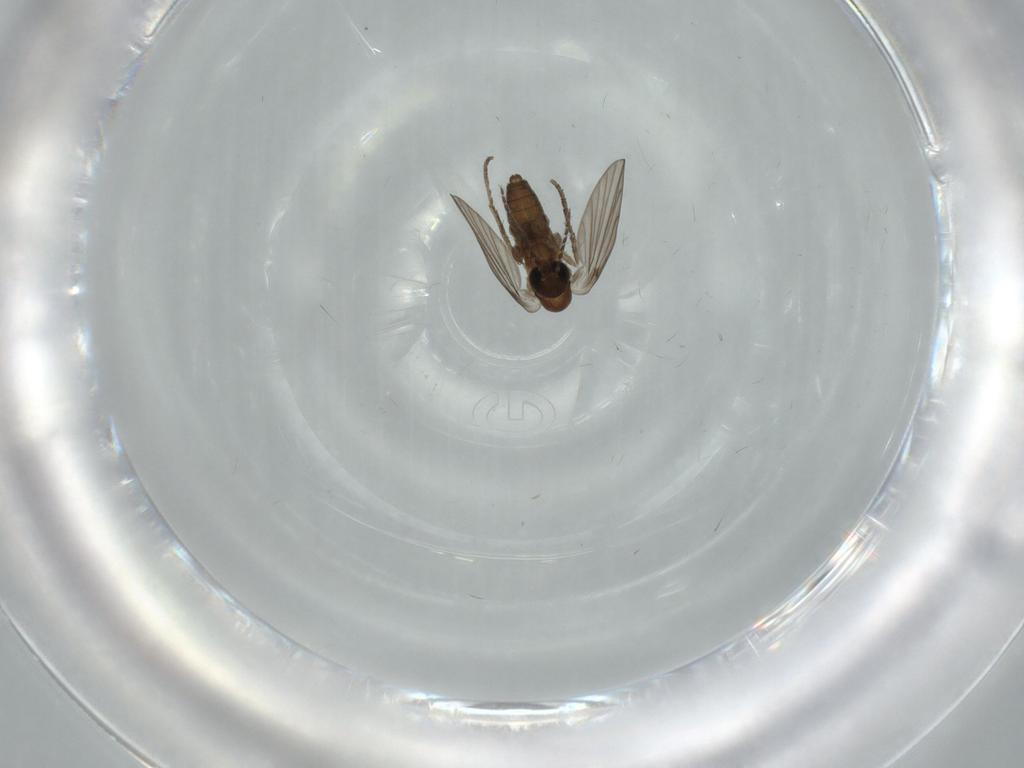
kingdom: Animalia
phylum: Arthropoda
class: Insecta
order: Diptera
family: Psychodidae
